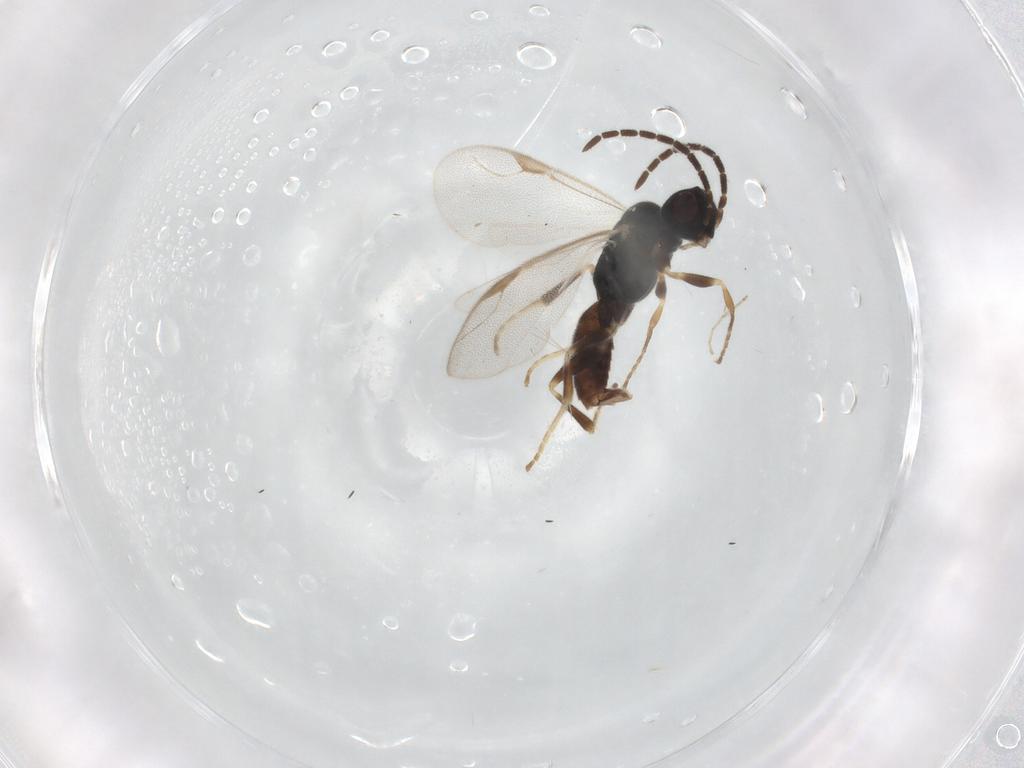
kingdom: Animalia
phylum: Arthropoda
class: Insecta
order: Hymenoptera
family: Dryinidae
